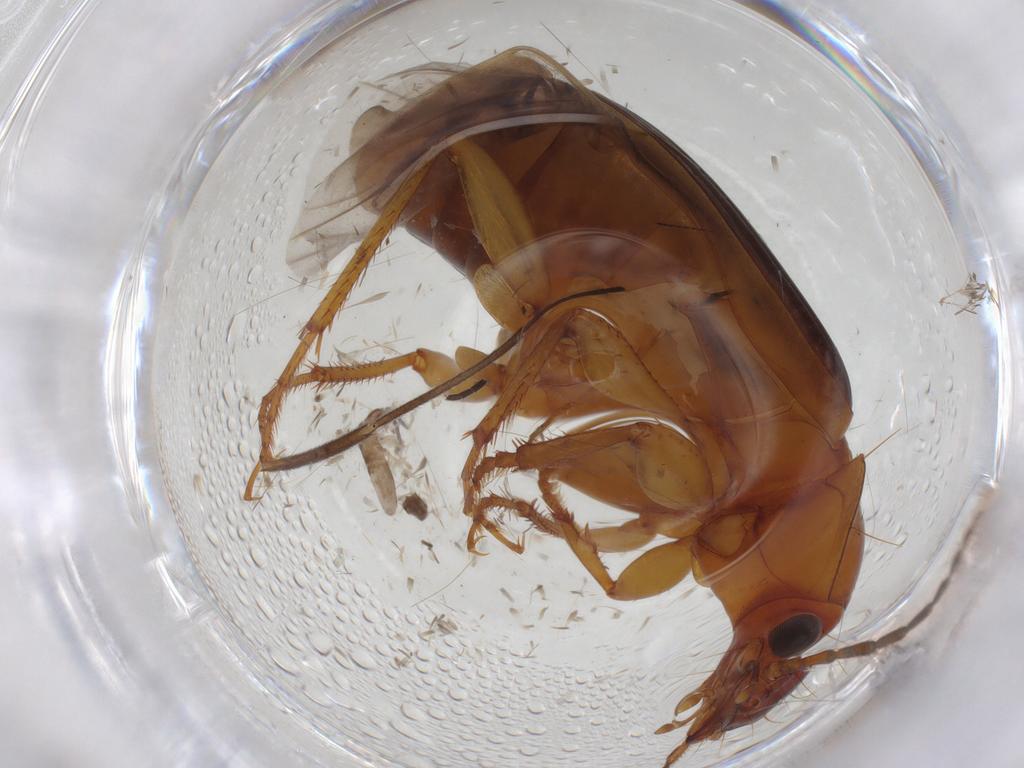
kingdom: Animalia
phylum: Arthropoda
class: Insecta
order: Coleoptera
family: Carabidae
